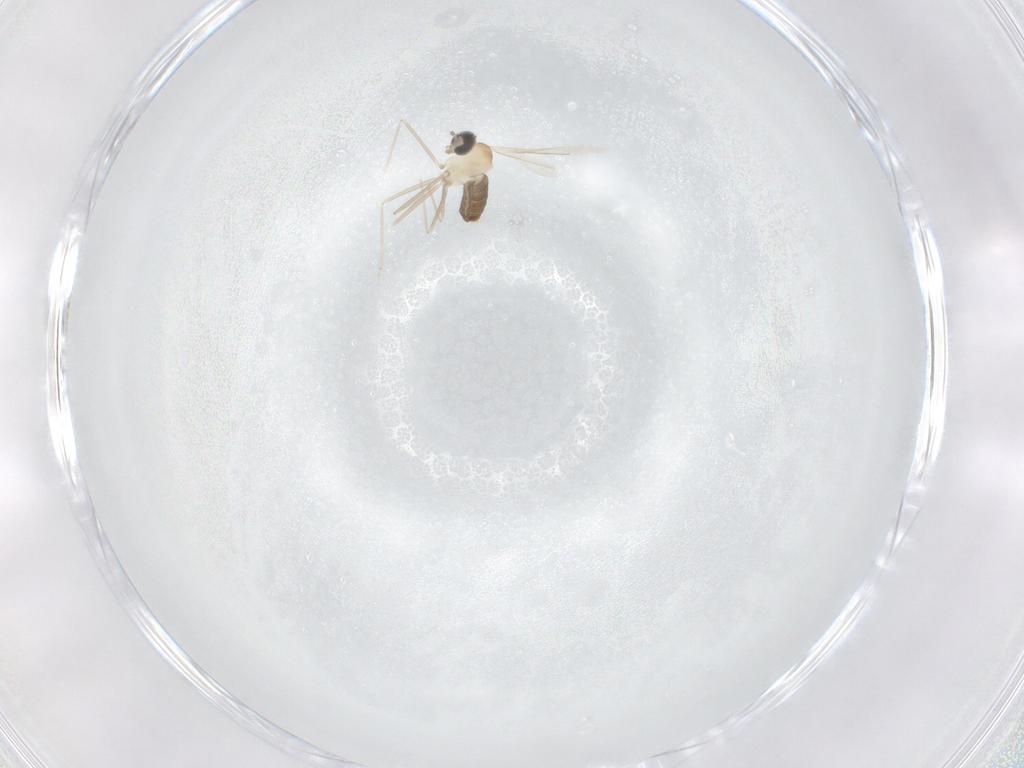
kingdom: Animalia
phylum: Arthropoda
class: Insecta
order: Diptera
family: Cecidomyiidae
